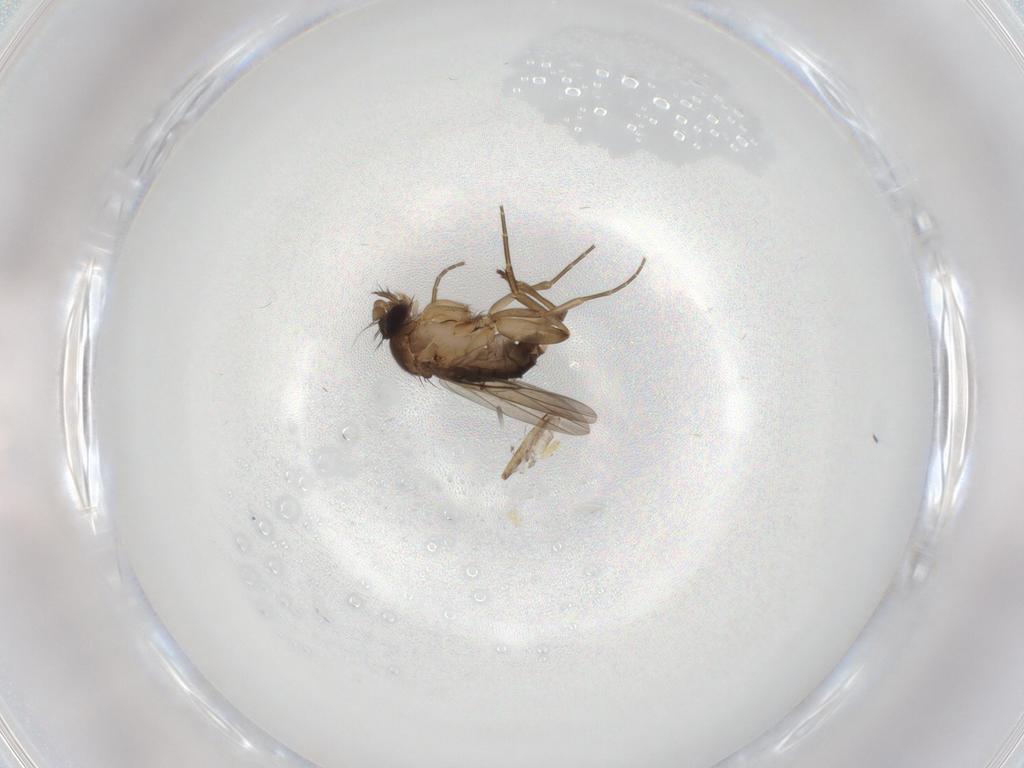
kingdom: Animalia
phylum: Arthropoda
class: Insecta
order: Diptera
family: Phoridae
